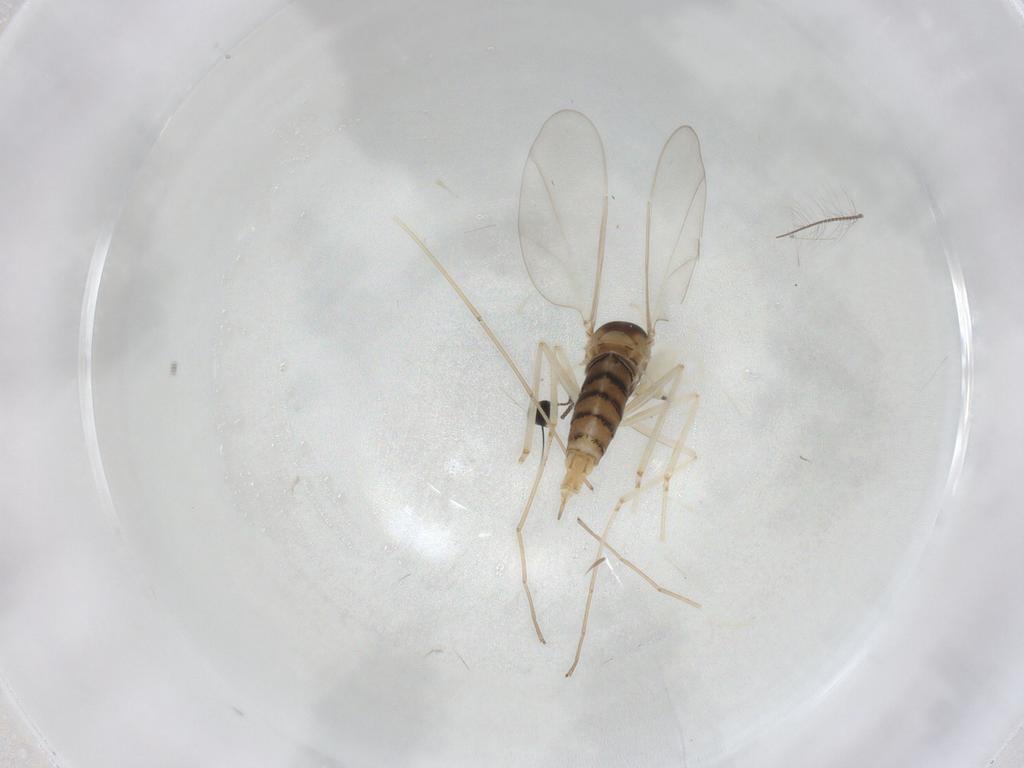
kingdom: Animalia
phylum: Arthropoda
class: Insecta
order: Diptera
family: Cecidomyiidae
